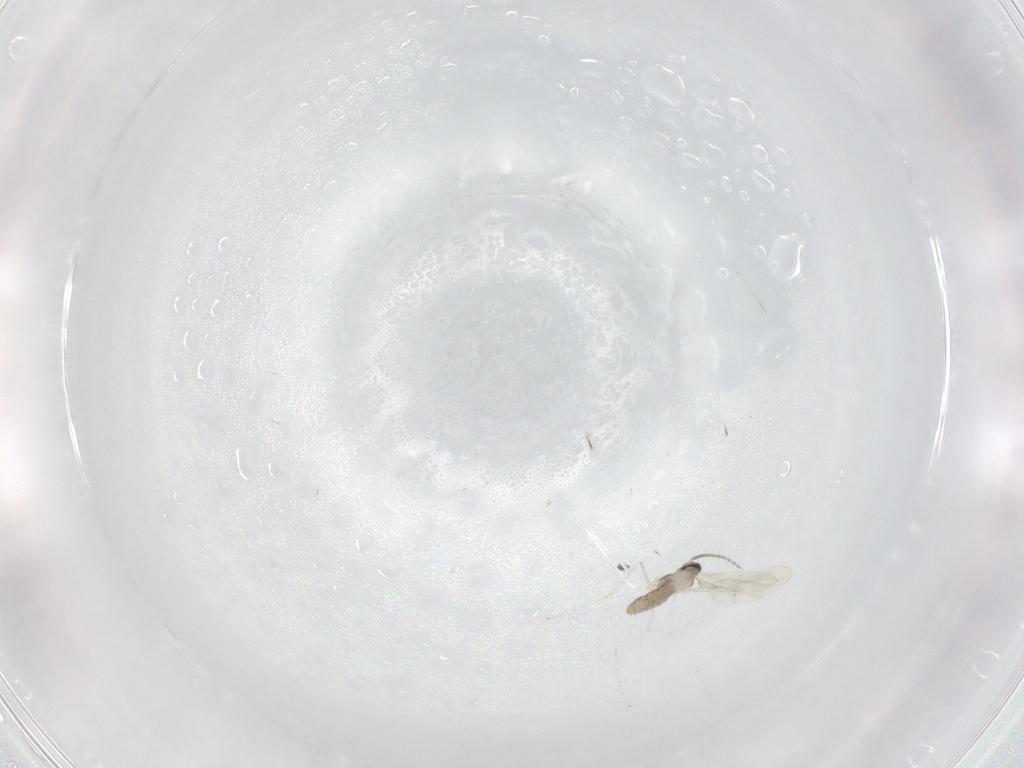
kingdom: Animalia
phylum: Arthropoda
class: Insecta
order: Diptera
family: Cecidomyiidae
